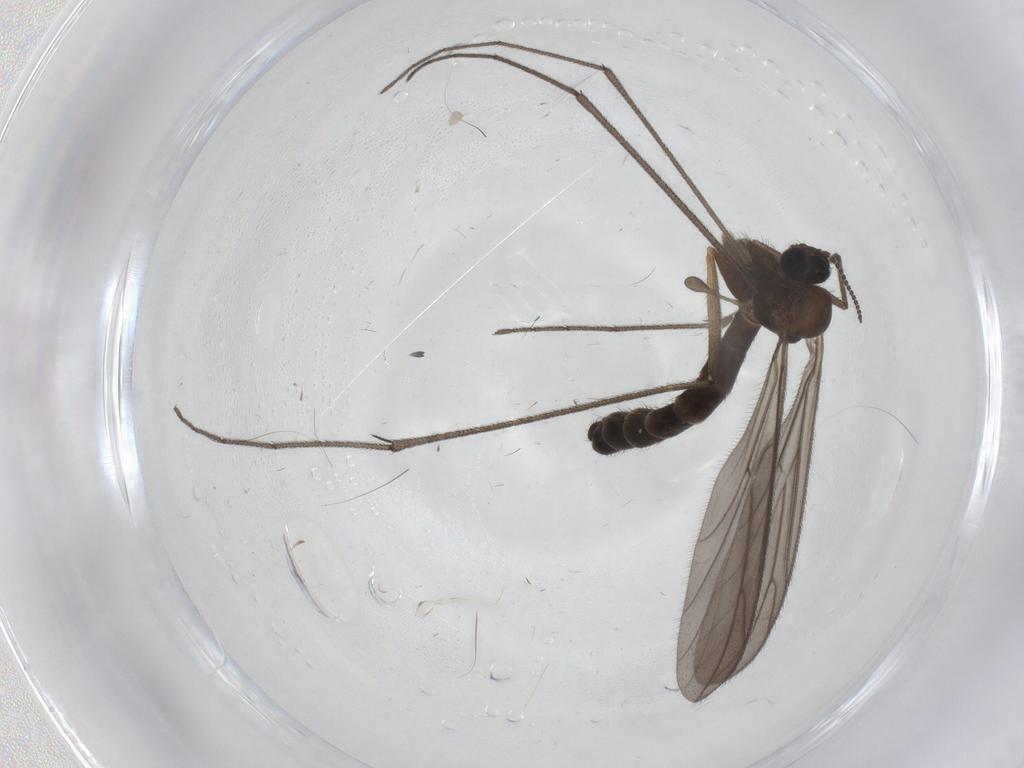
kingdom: Animalia
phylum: Arthropoda
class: Insecta
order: Diptera
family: Keroplatidae
